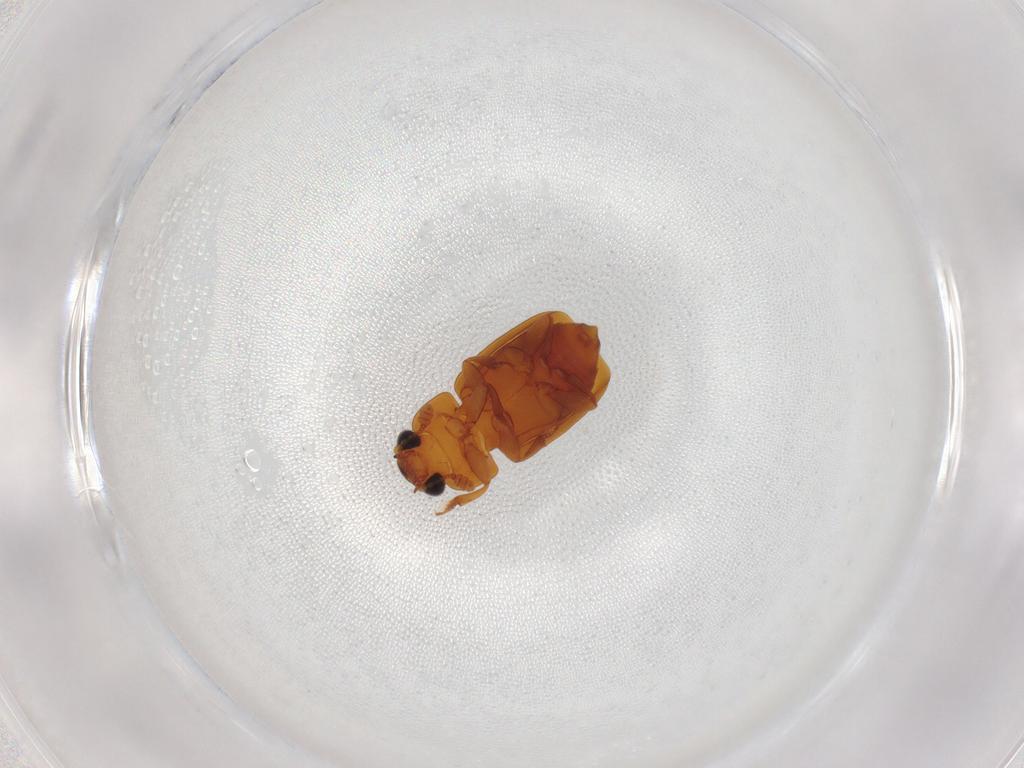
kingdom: Animalia
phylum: Arthropoda
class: Insecta
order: Coleoptera
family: Nitidulidae
